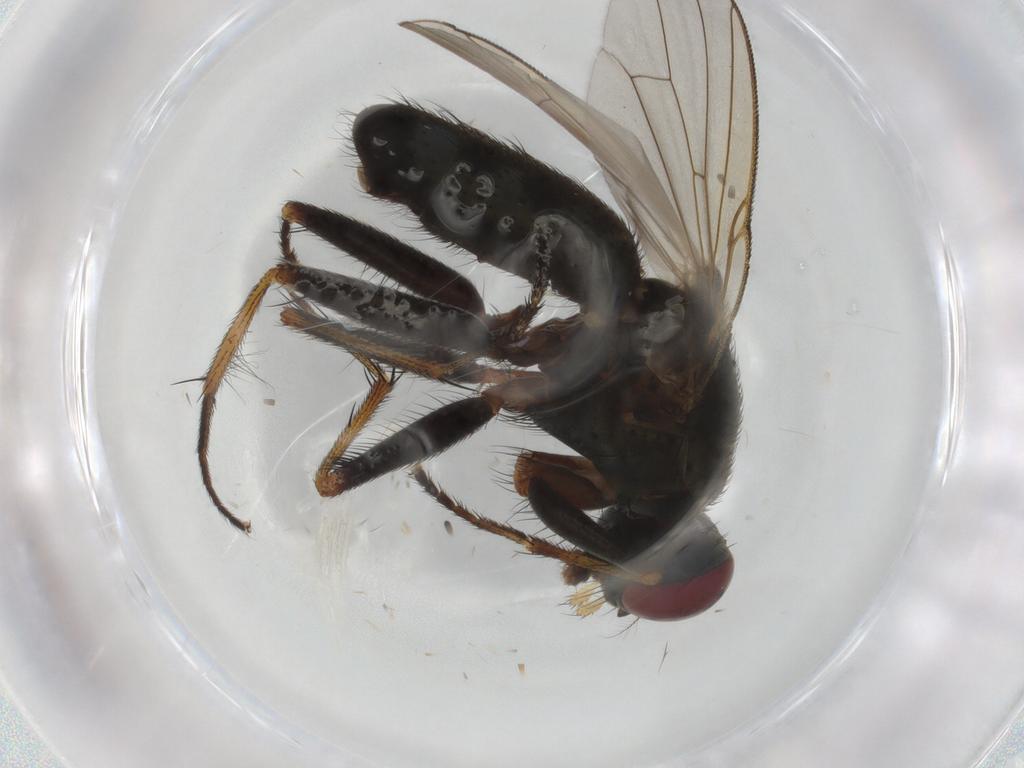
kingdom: Animalia
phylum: Arthropoda
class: Insecta
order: Diptera
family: Muscidae
